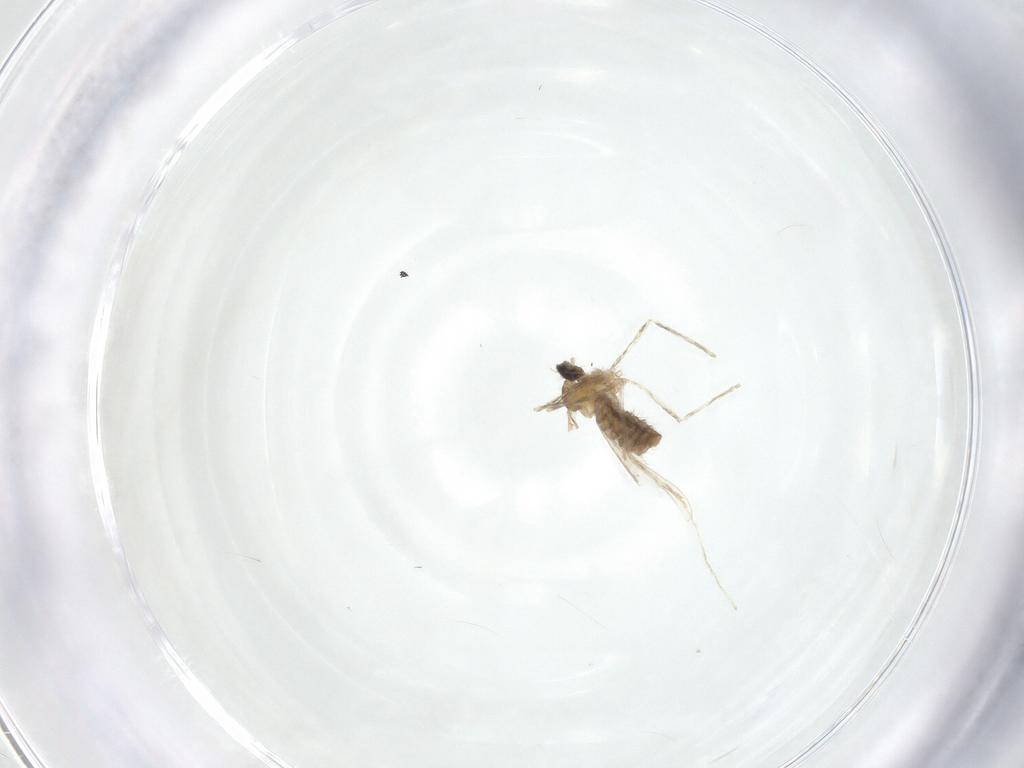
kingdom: Animalia
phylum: Arthropoda
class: Insecta
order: Diptera
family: Cecidomyiidae
